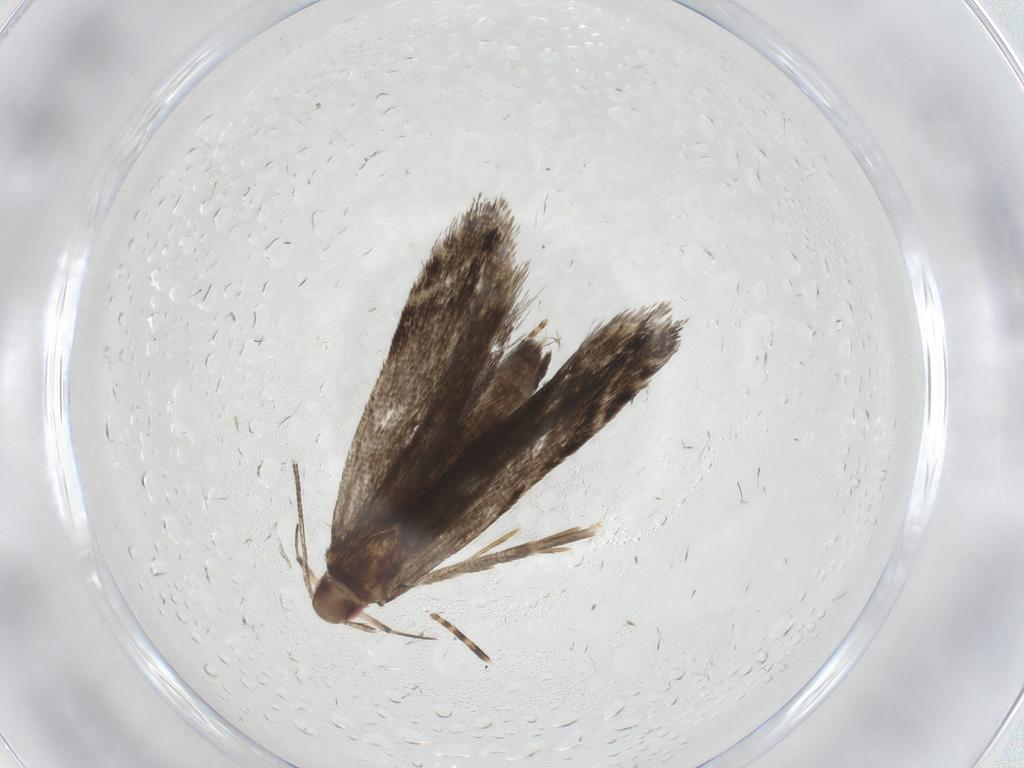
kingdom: Animalia
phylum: Arthropoda
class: Insecta
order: Lepidoptera
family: Gelechiidae
